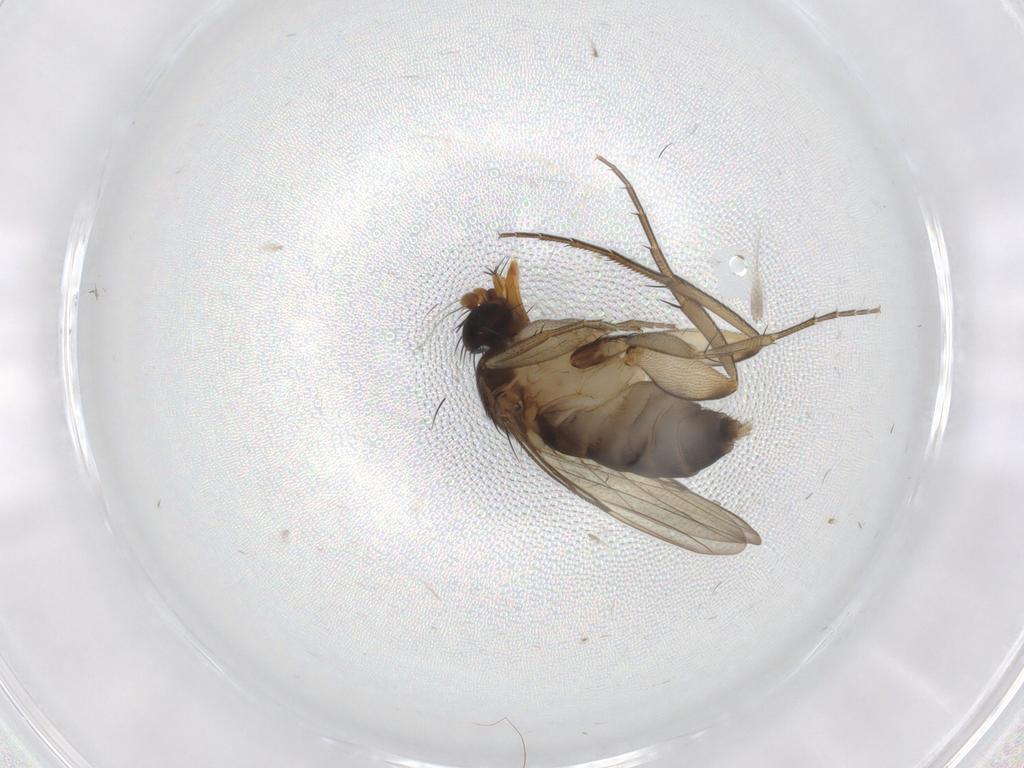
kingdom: Animalia
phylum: Arthropoda
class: Insecta
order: Diptera
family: Phoridae
